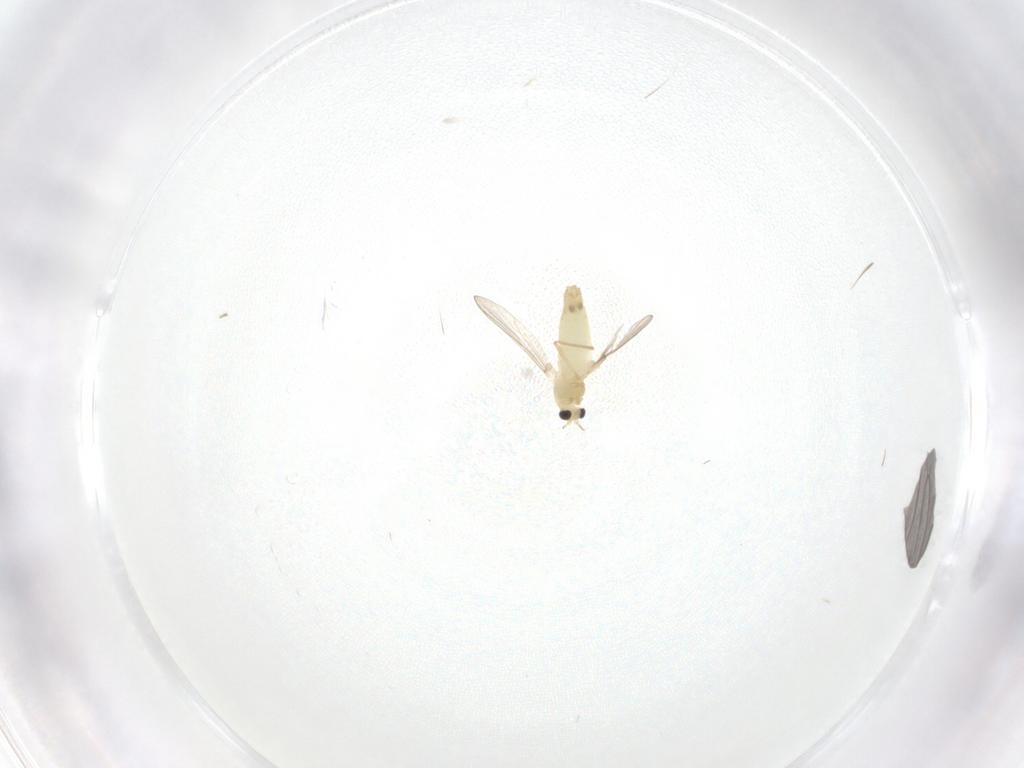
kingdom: Animalia
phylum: Arthropoda
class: Insecta
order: Diptera
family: Chironomidae
